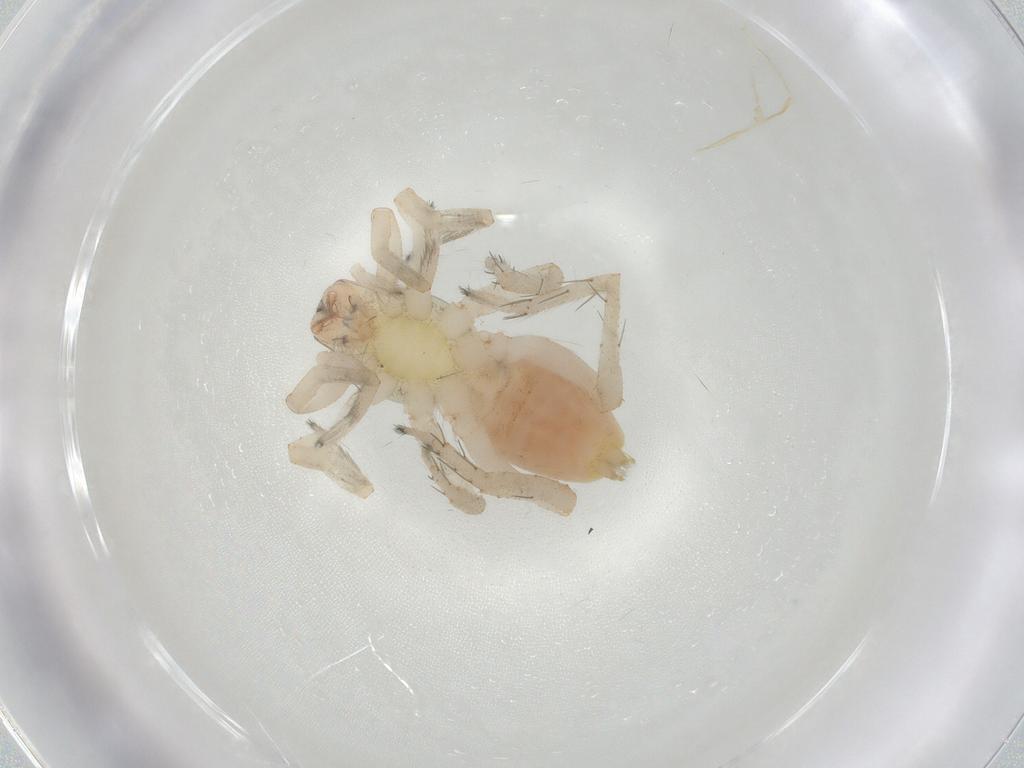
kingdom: Animalia
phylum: Arthropoda
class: Arachnida
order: Araneae
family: Clubionidae
